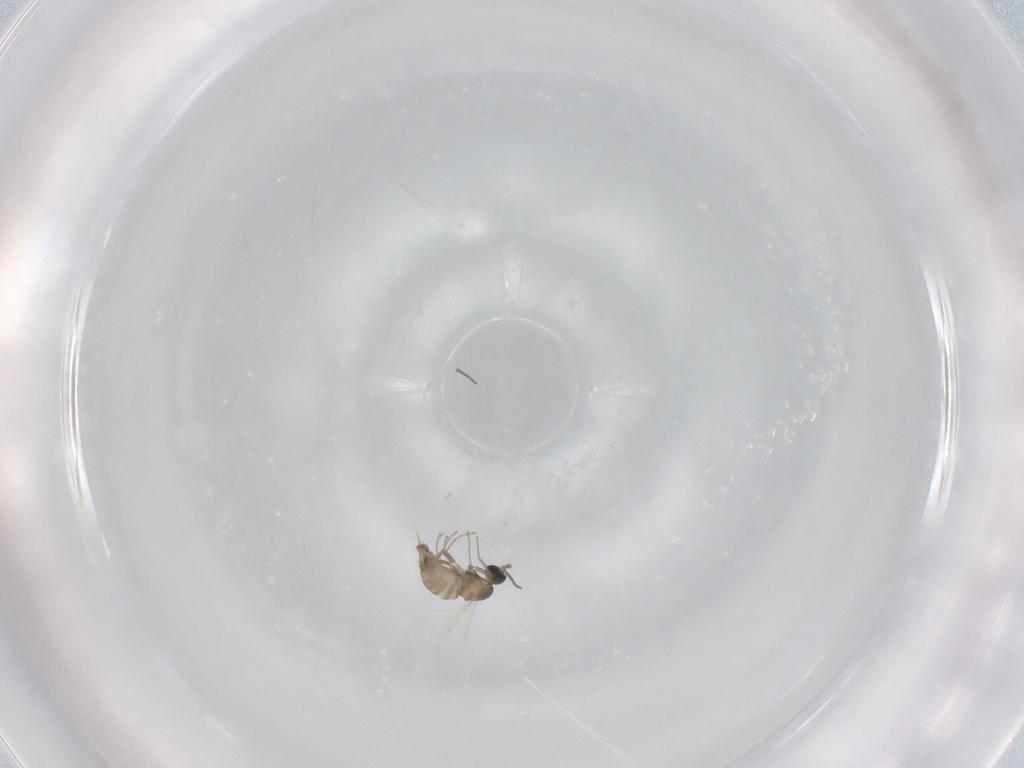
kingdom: Animalia
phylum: Arthropoda
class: Insecta
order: Diptera
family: Cecidomyiidae
